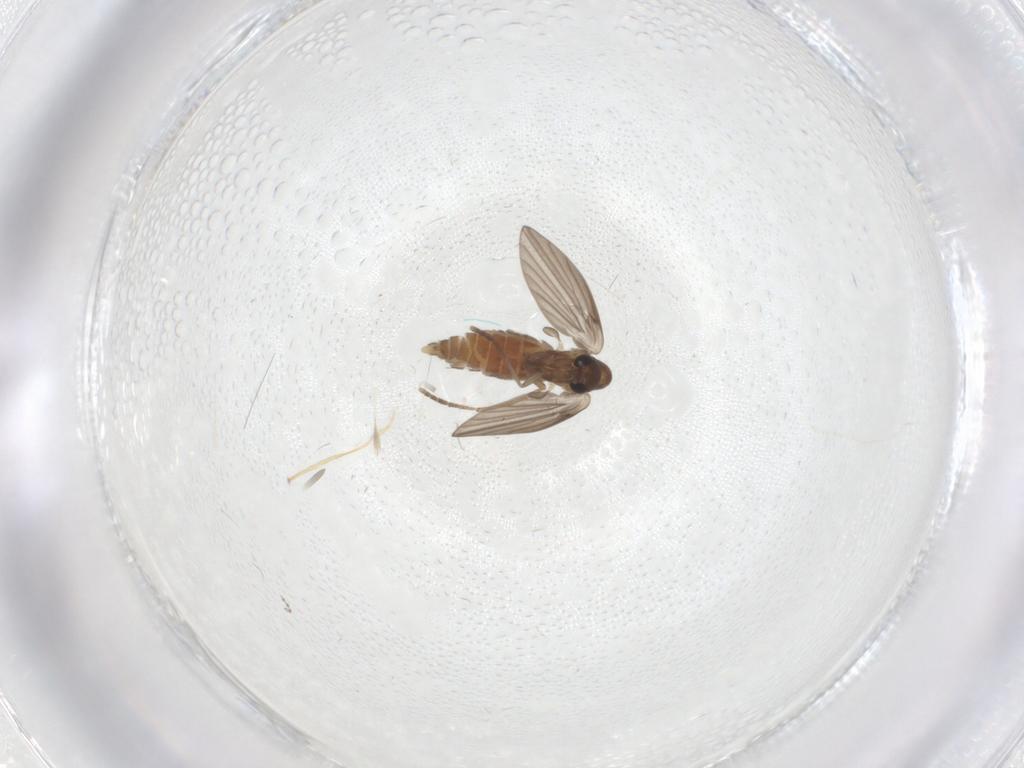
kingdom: Animalia
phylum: Arthropoda
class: Insecta
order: Diptera
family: Psychodidae
